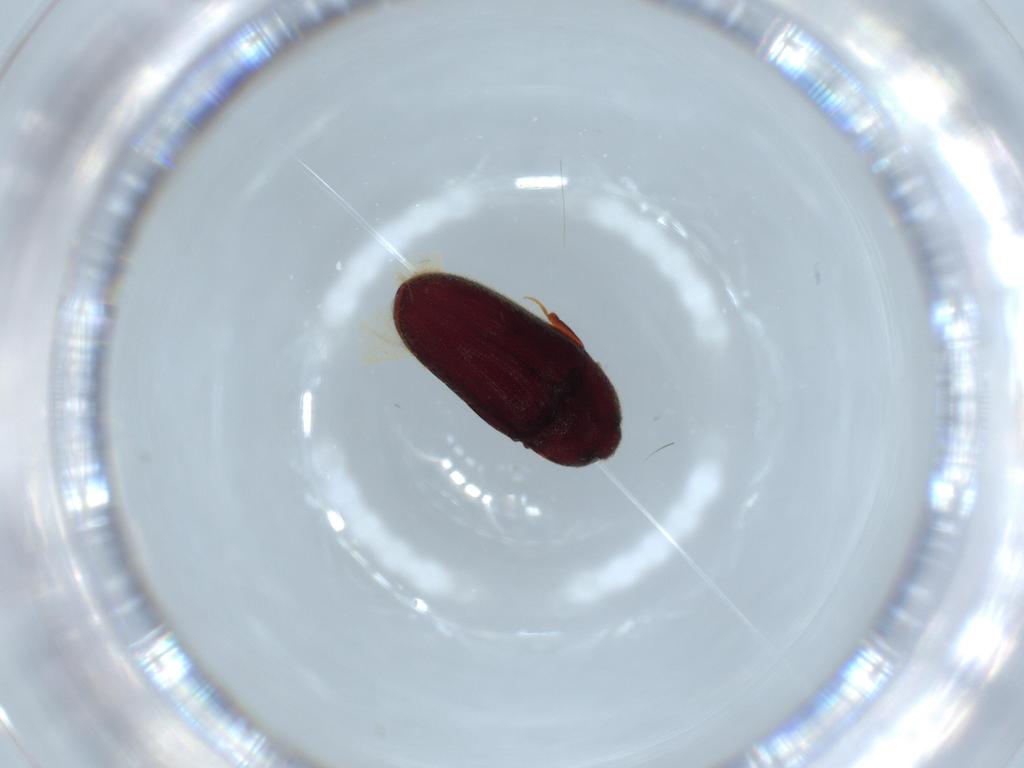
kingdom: Animalia
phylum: Arthropoda
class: Insecta
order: Coleoptera
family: Throscidae
